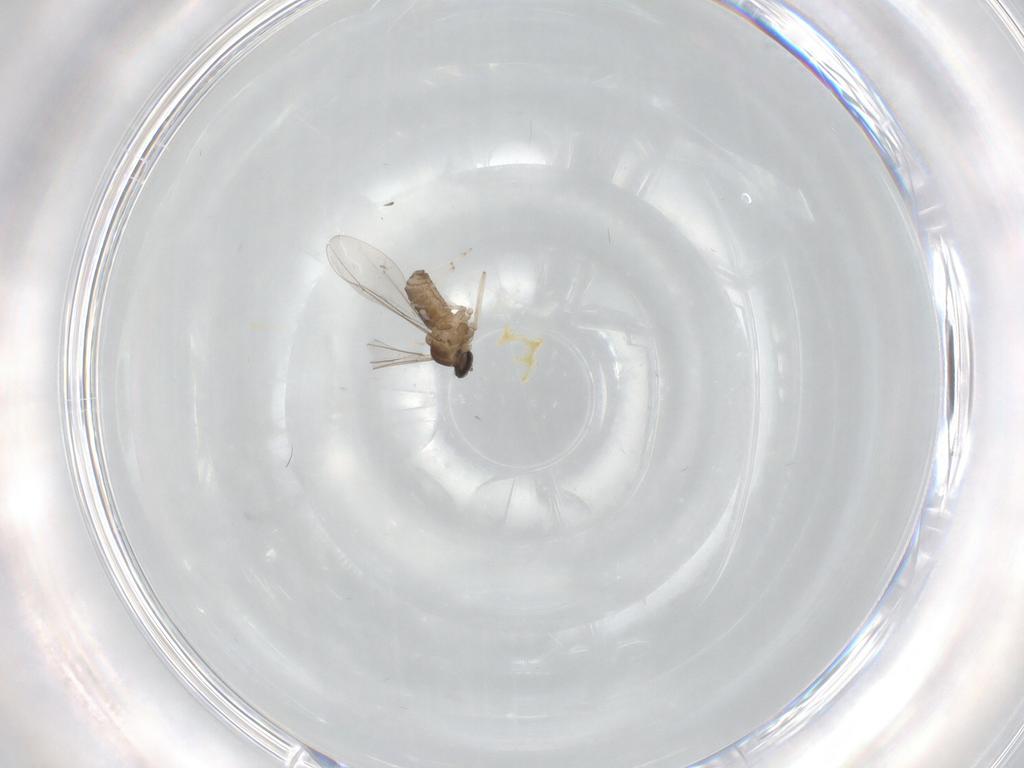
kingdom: Animalia
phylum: Arthropoda
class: Insecta
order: Diptera
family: Cecidomyiidae
